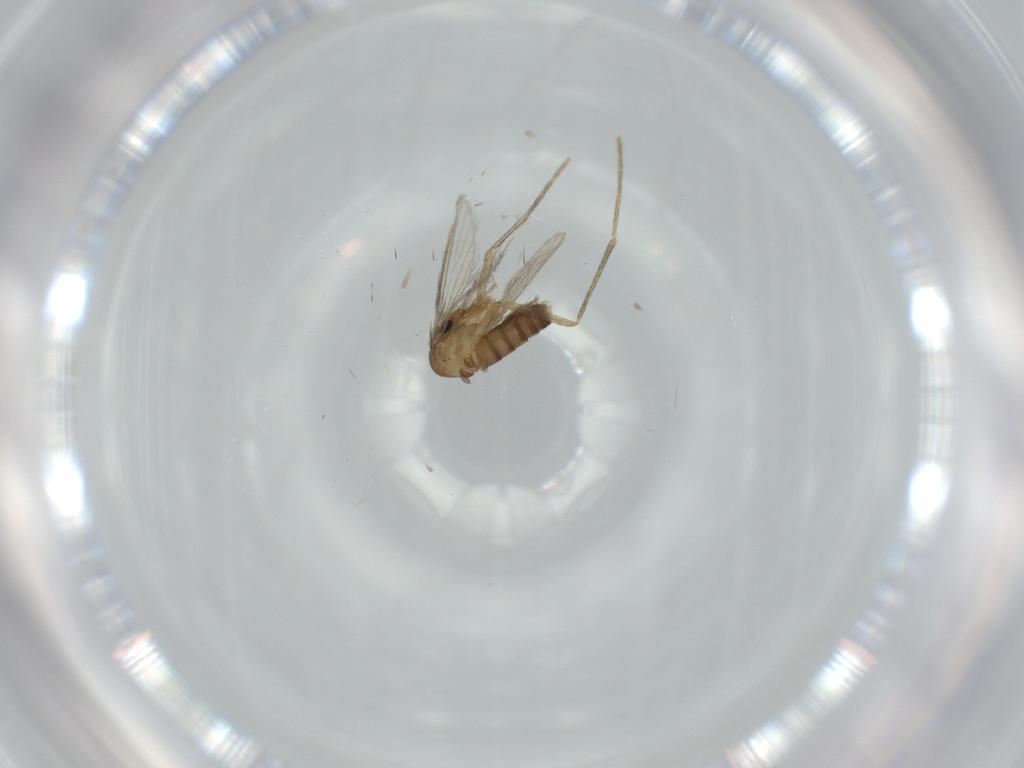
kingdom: Animalia
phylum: Arthropoda
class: Insecta
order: Diptera
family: Psychodidae
